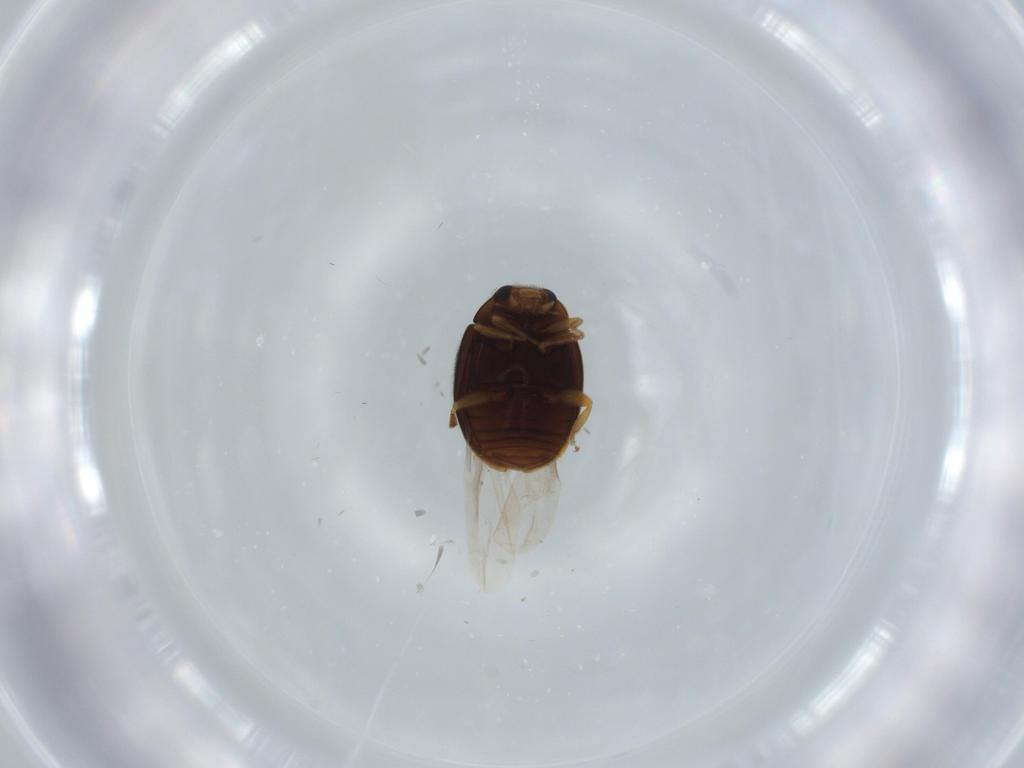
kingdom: Animalia
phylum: Arthropoda
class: Insecta
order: Coleoptera
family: Coccinellidae
